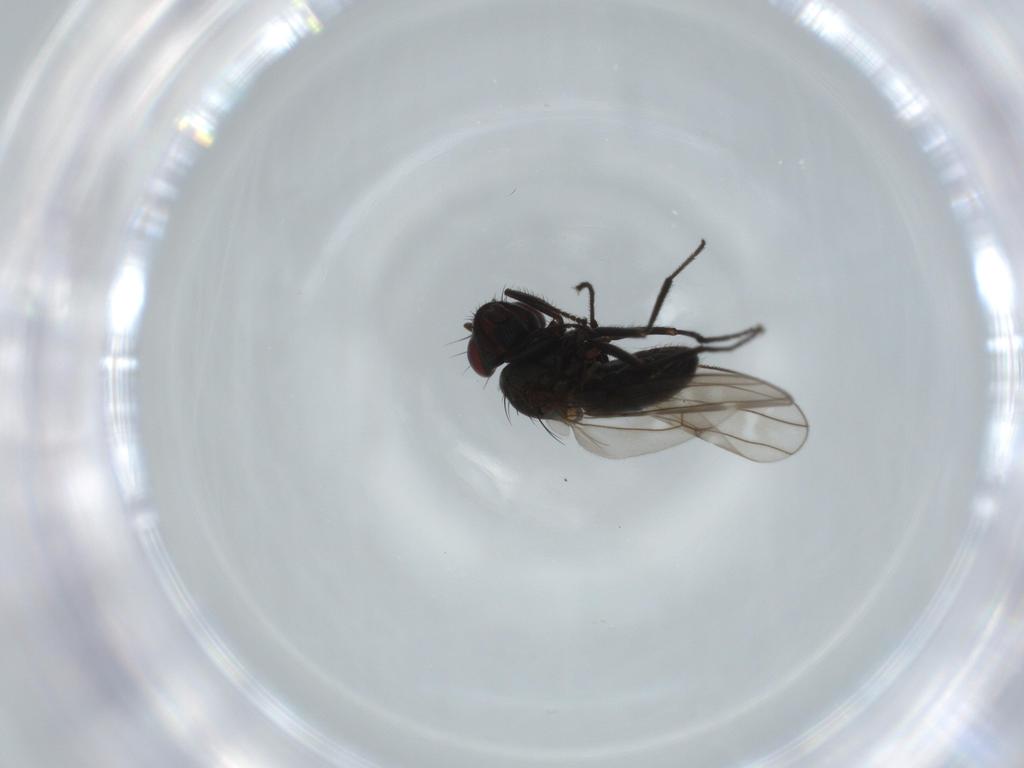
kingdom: Animalia
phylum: Arthropoda
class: Insecta
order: Diptera
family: Ephydridae
